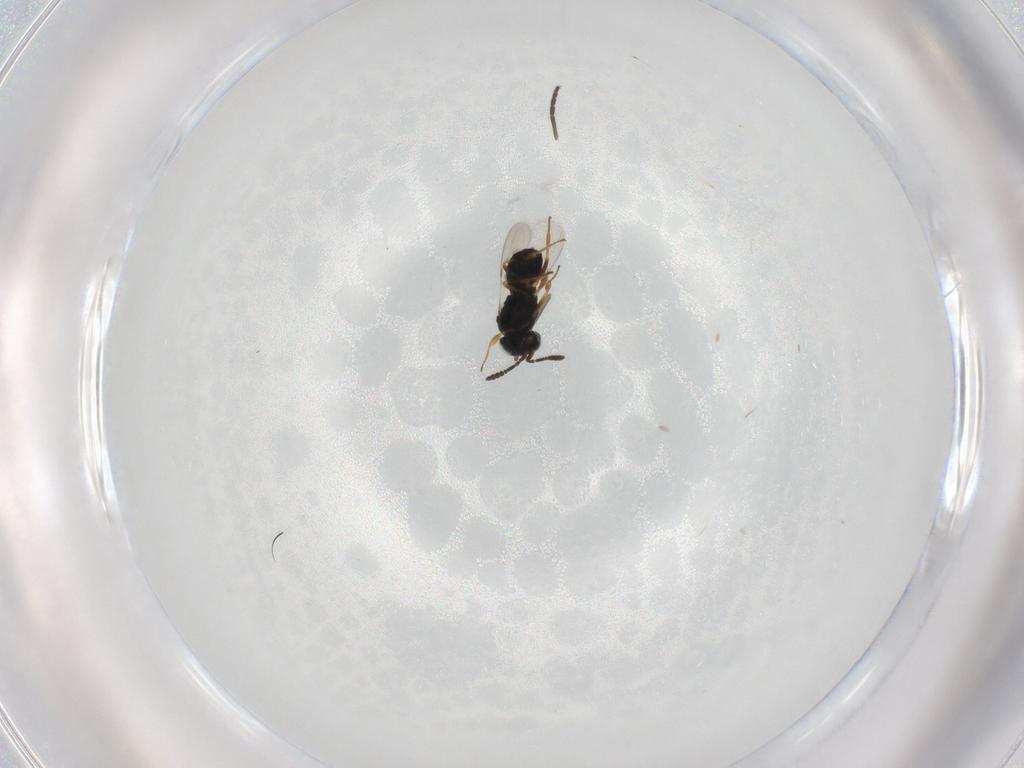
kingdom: Animalia
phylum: Arthropoda
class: Insecta
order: Hymenoptera
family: Scelionidae
